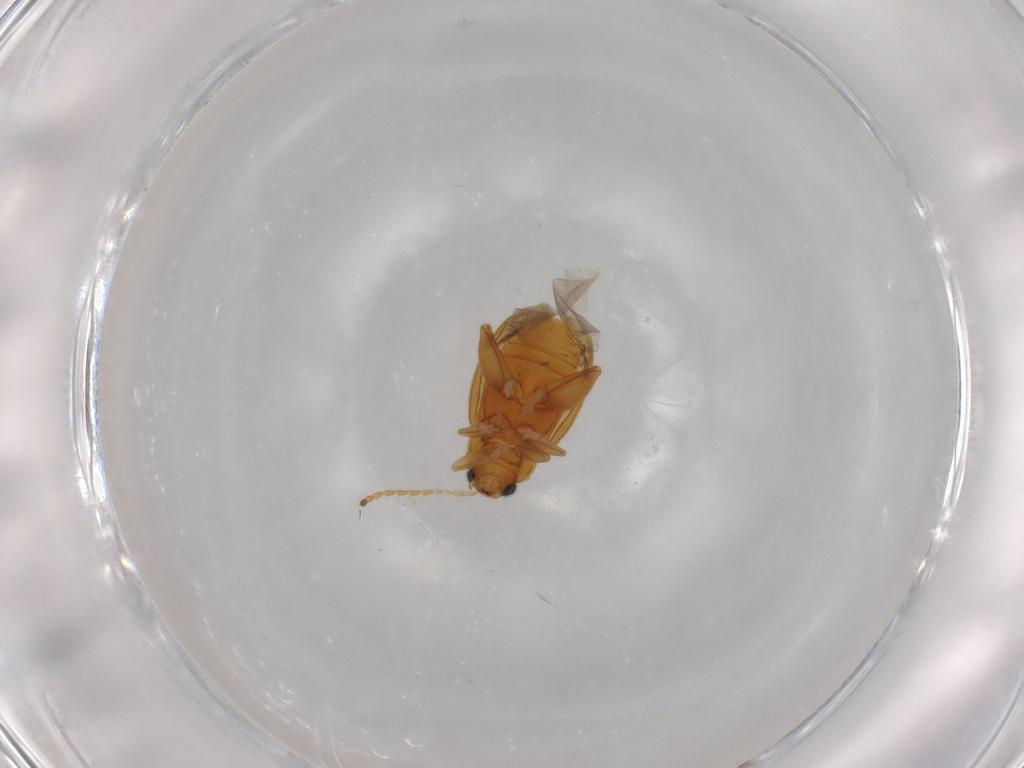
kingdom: Animalia
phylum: Arthropoda
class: Insecta
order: Coleoptera
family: Chrysomelidae
